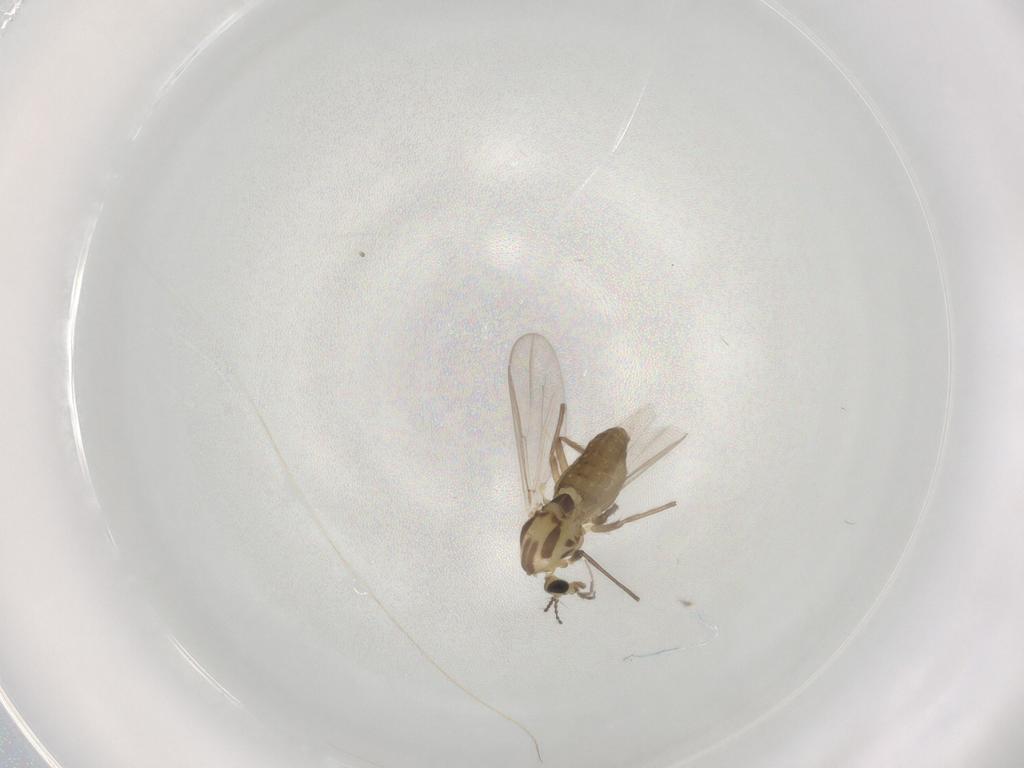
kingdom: Animalia
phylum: Arthropoda
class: Insecta
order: Diptera
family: Chironomidae
